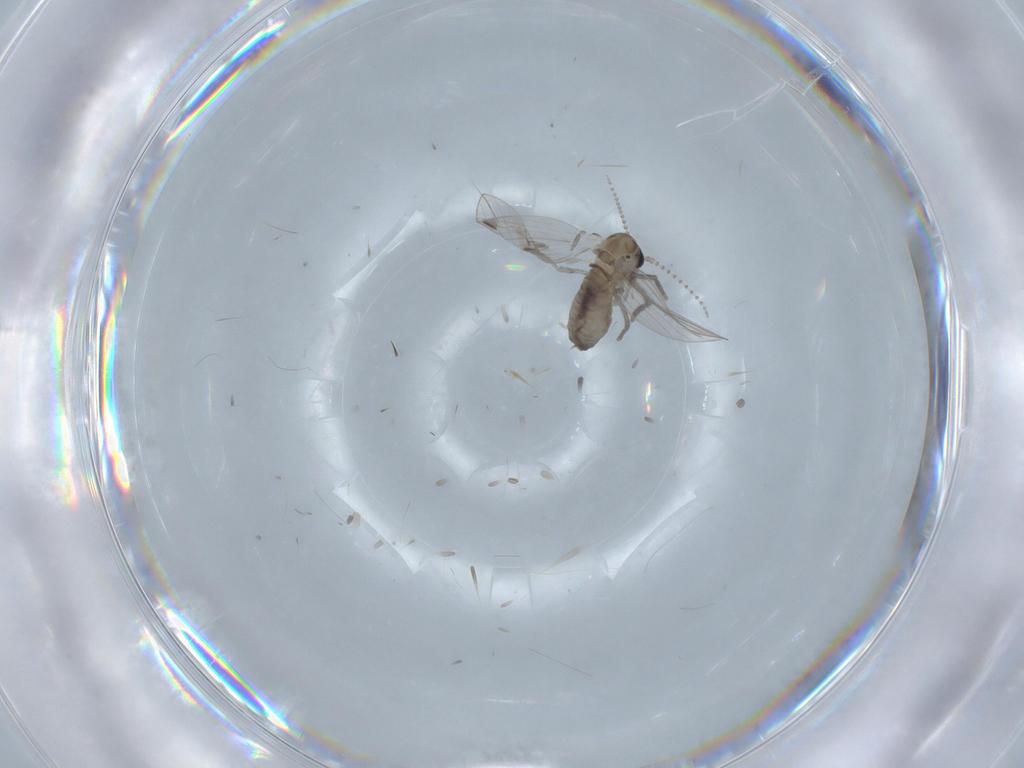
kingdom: Animalia
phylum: Arthropoda
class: Insecta
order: Diptera
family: Psychodidae
